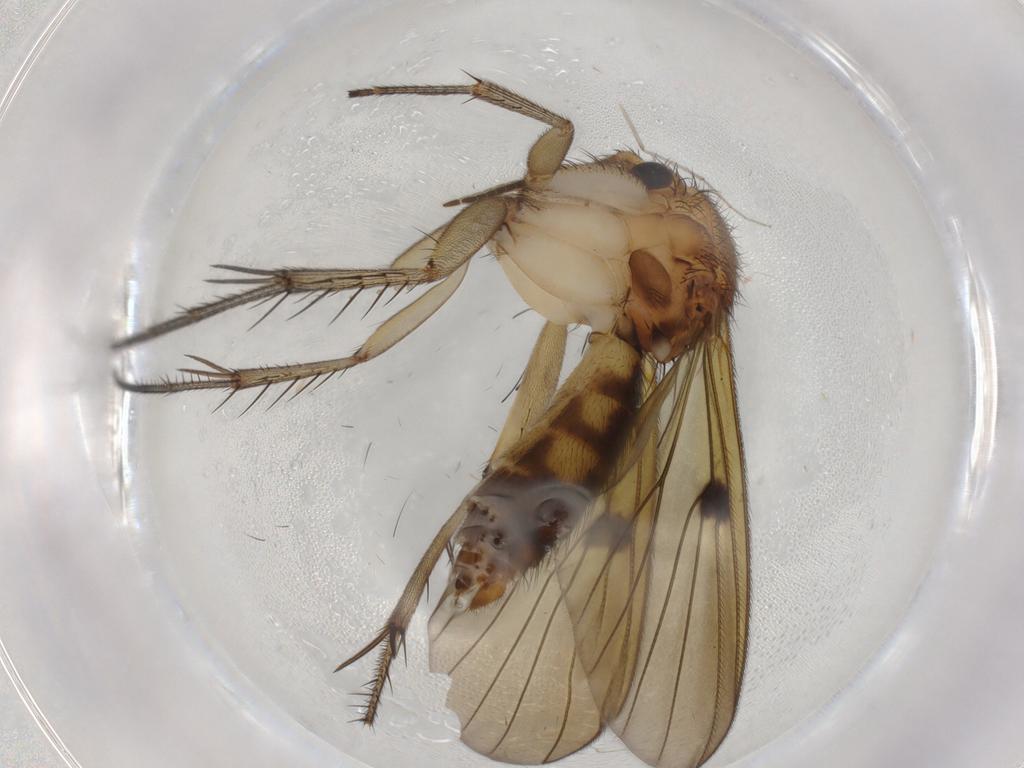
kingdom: Animalia
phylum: Arthropoda
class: Insecta
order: Diptera
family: Mycetophilidae
